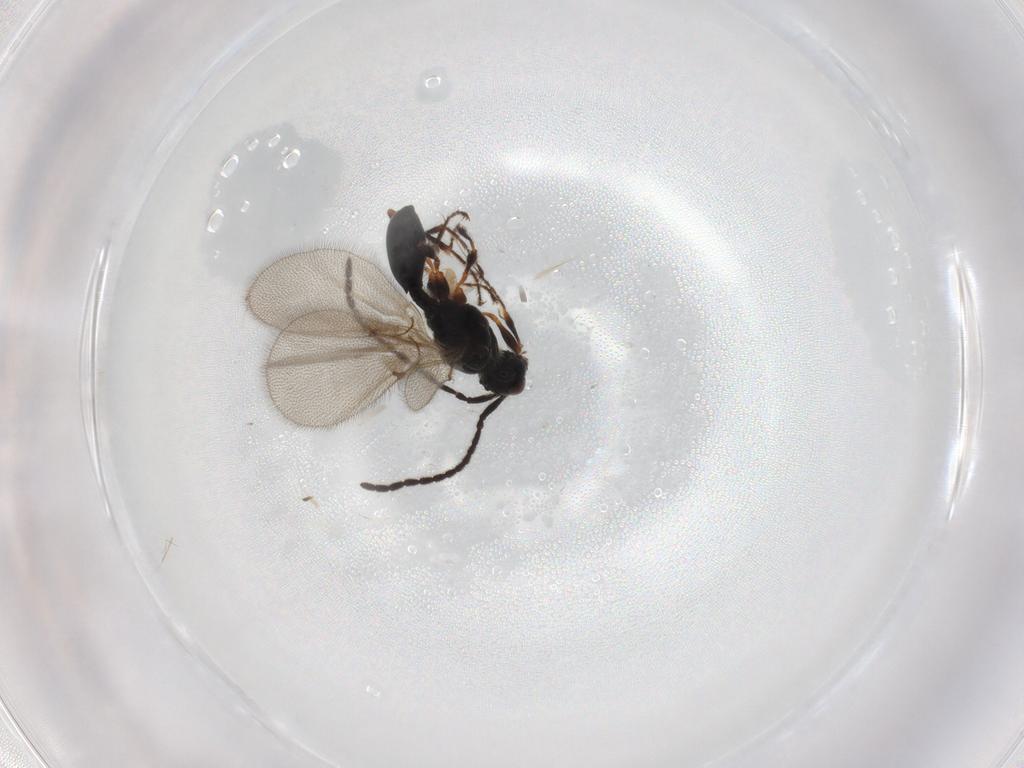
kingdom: Animalia
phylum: Arthropoda
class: Insecta
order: Hymenoptera
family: Diapriidae
